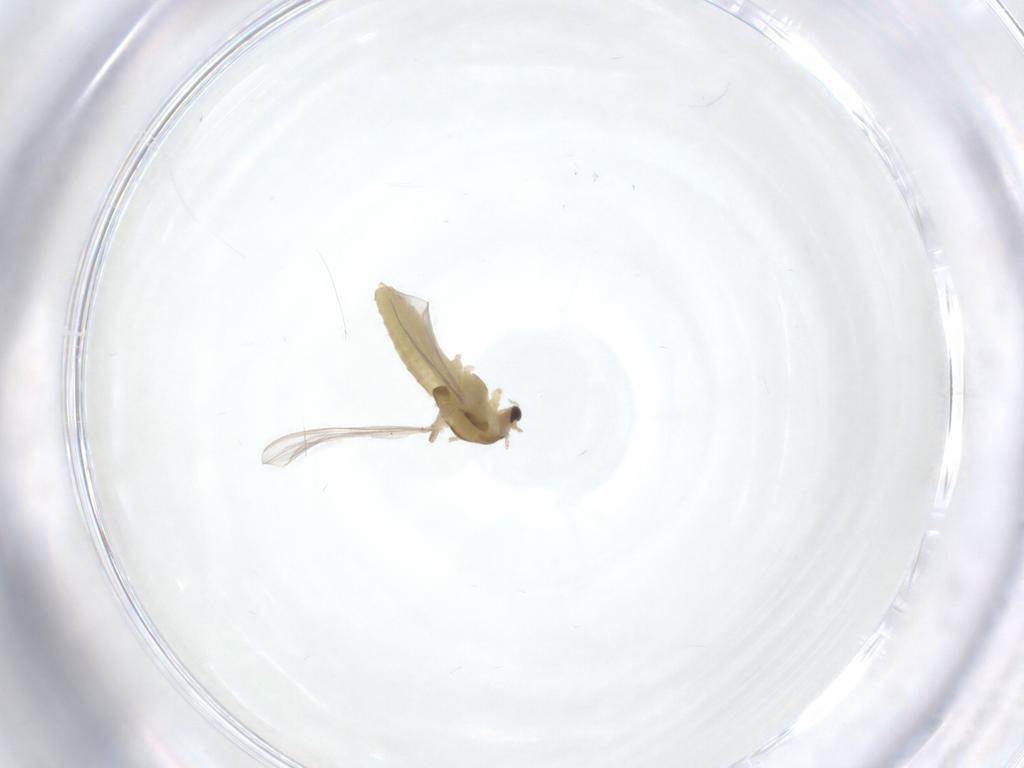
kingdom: Animalia
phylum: Arthropoda
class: Insecta
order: Diptera
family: Chironomidae
